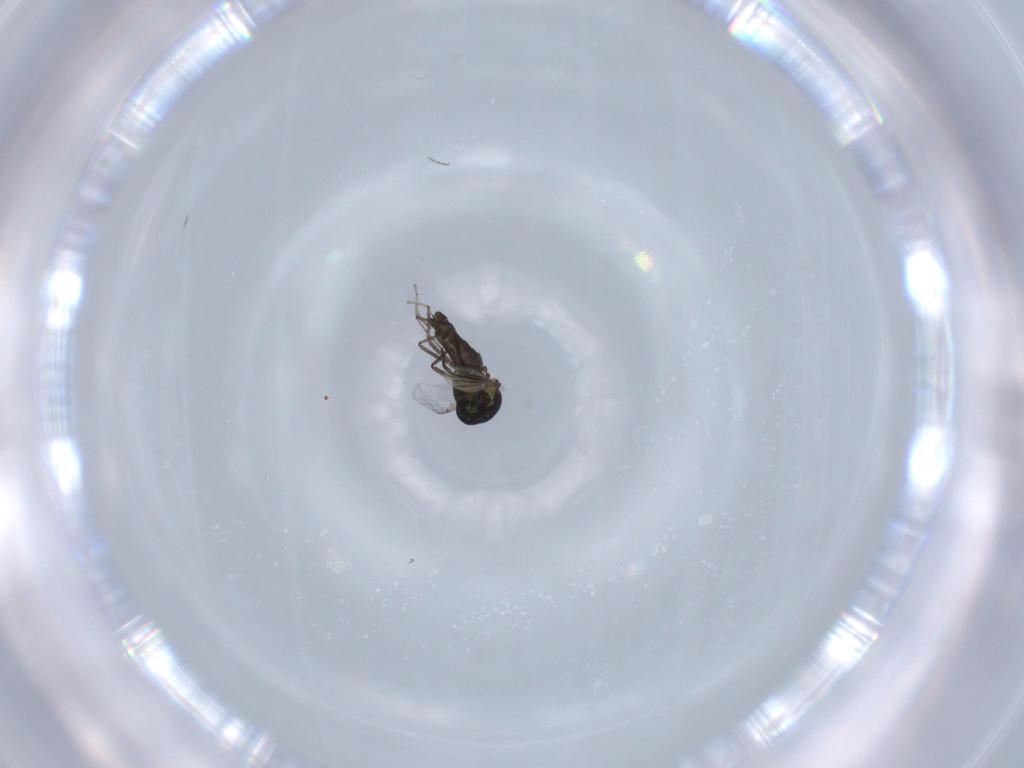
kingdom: Animalia
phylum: Arthropoda
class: Insecta
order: Diptera
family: Ceratopogonidae
